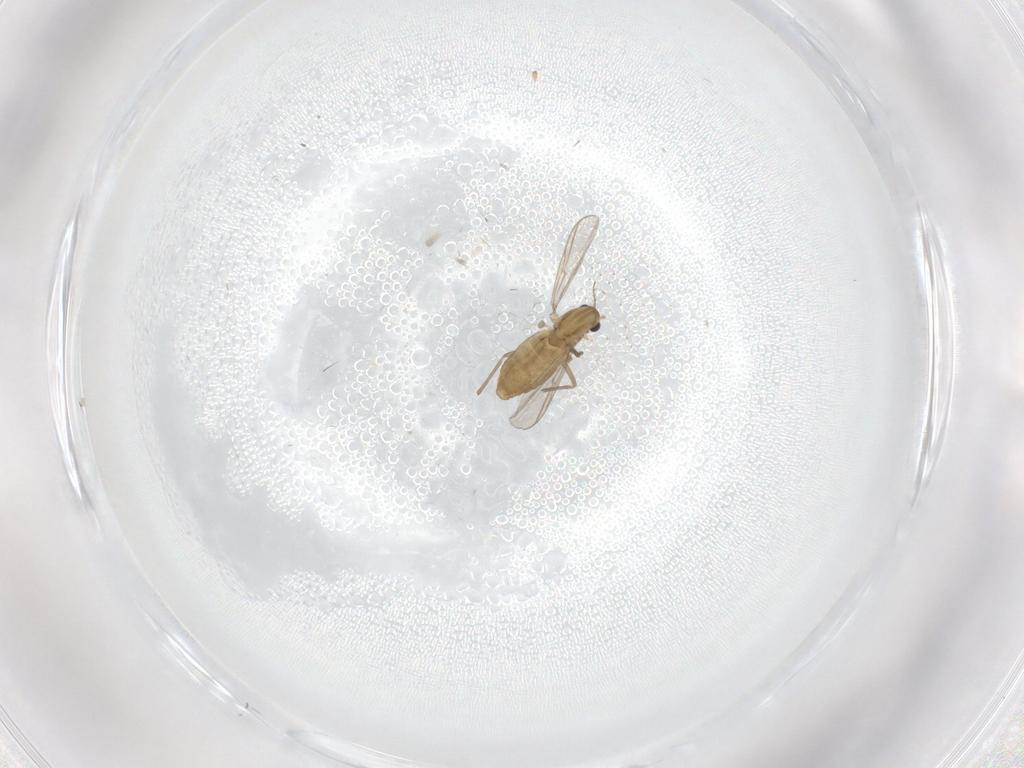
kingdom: Animalia
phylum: Arthropoda
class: Insecta
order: Diptera
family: Chironomidae
